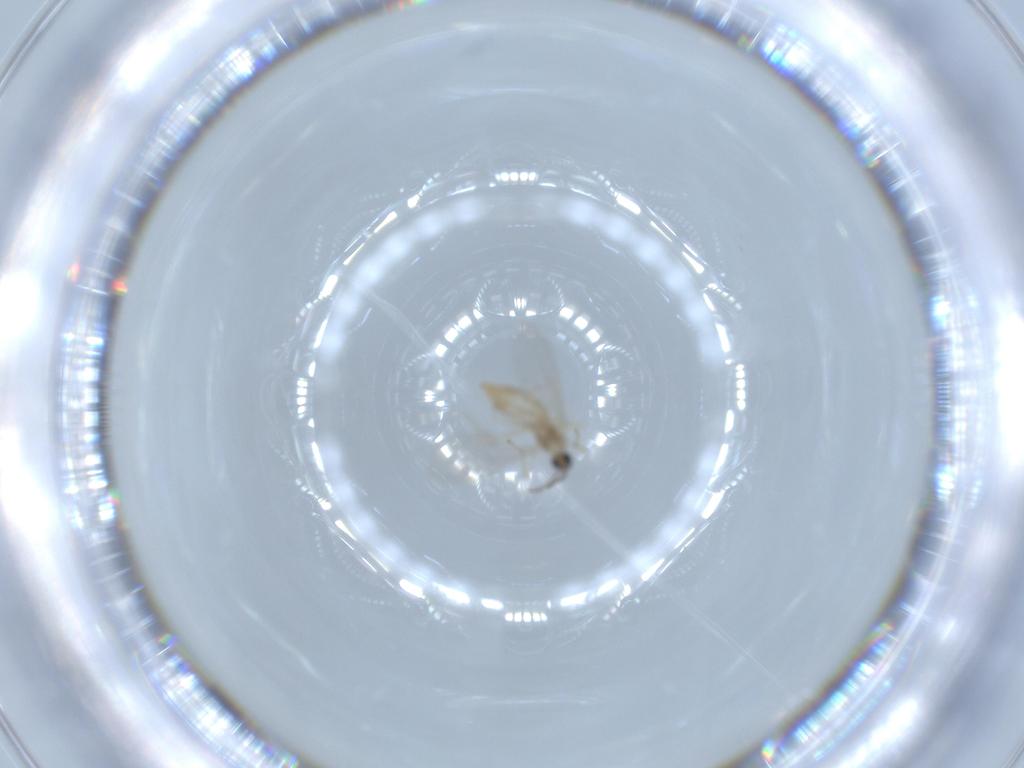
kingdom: Animalia
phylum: Arthropoda
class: Insecta
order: Diptera
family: Cecidomyiidae
